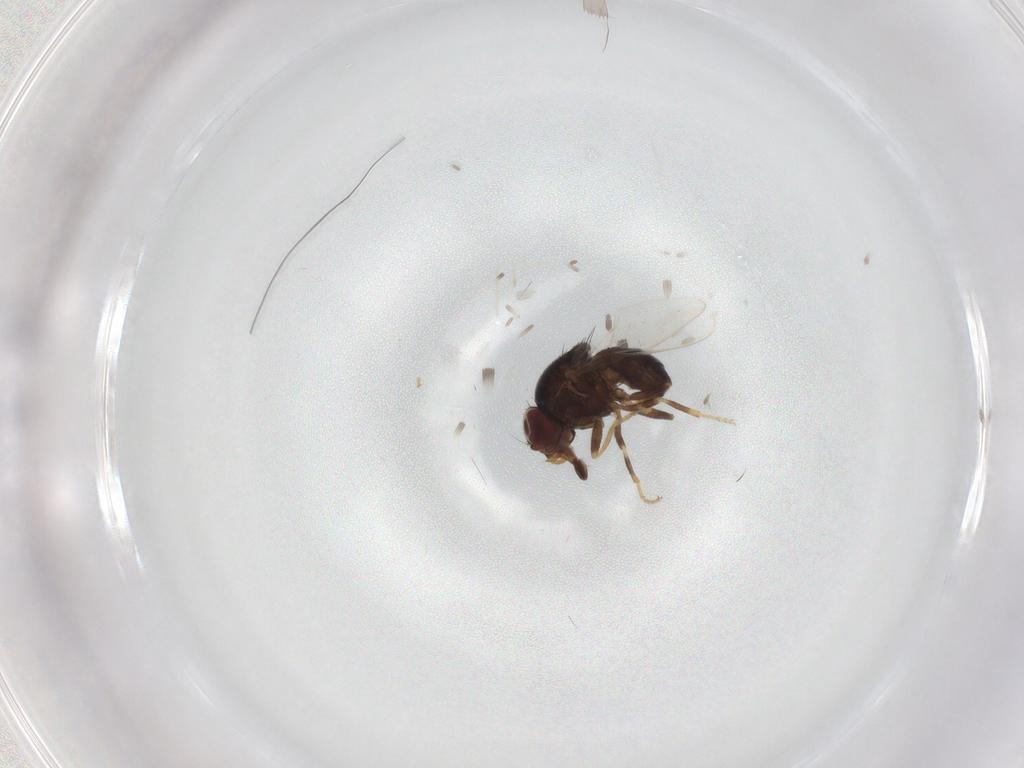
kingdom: Animalia
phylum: Arthropoda
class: Insecta
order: Diptera
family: Chloropidae
